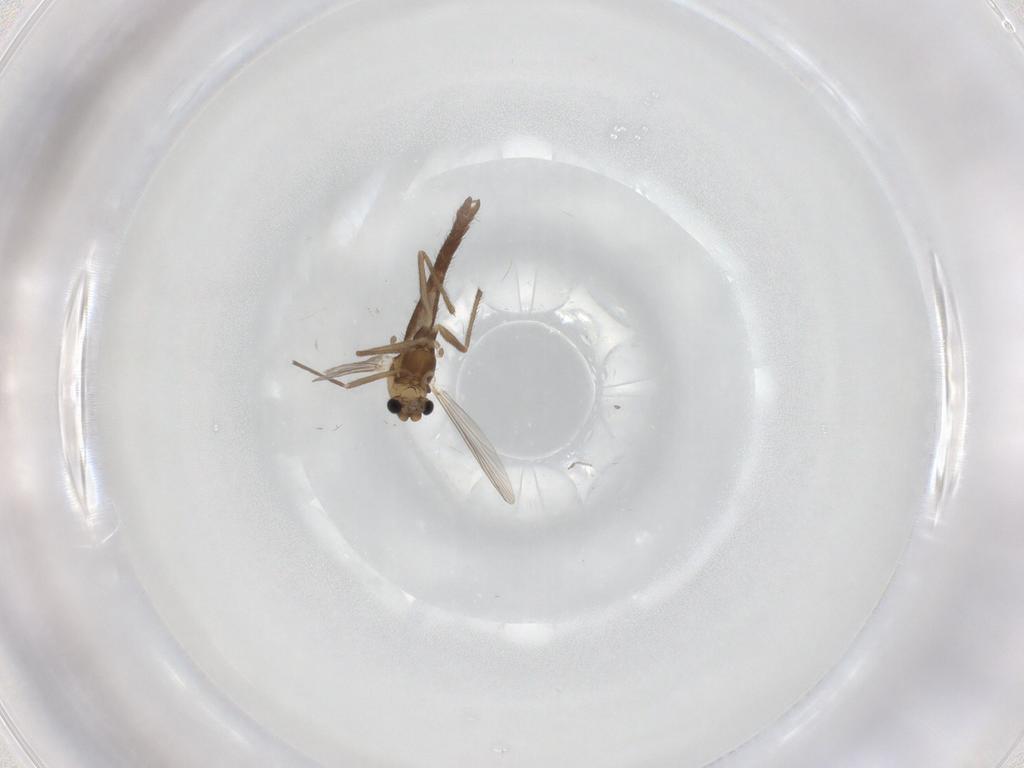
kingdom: Animalia
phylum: Arthropoda
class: Insecta
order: Diptera
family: Chironomidae
